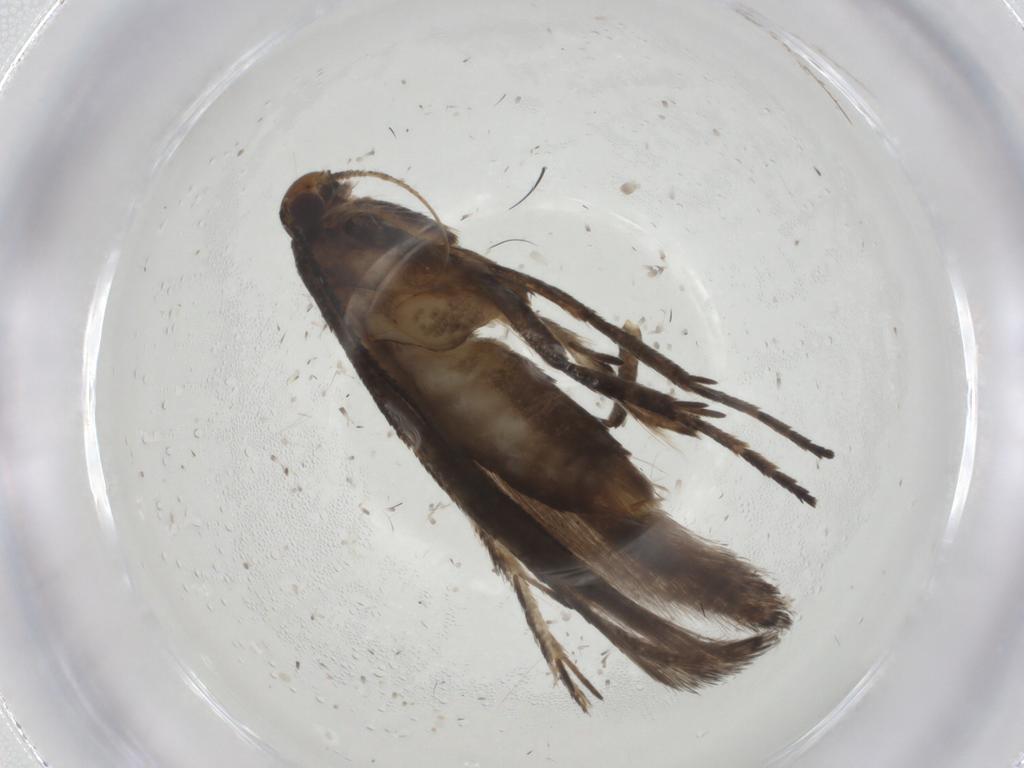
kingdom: Animalia
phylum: Arthropoda
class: Insecta
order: Lepidoptera
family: Gelechiidae
